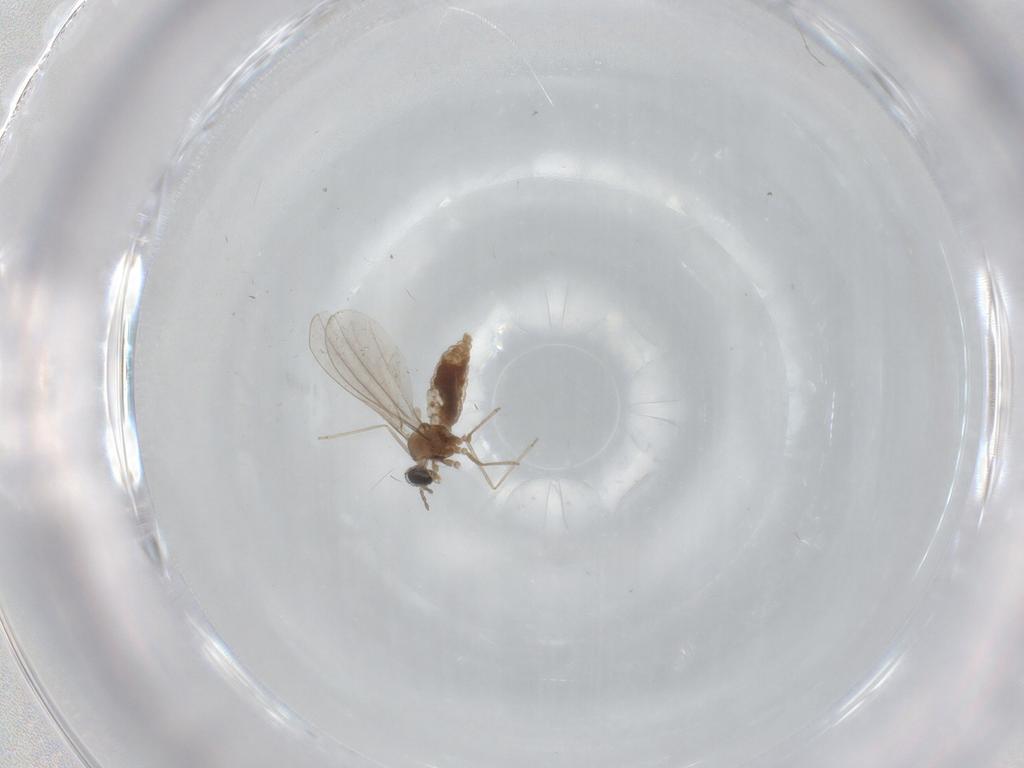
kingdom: Animalia
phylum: Arthropoda
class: Insecta
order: Diptera
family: Cecidomyiidae
